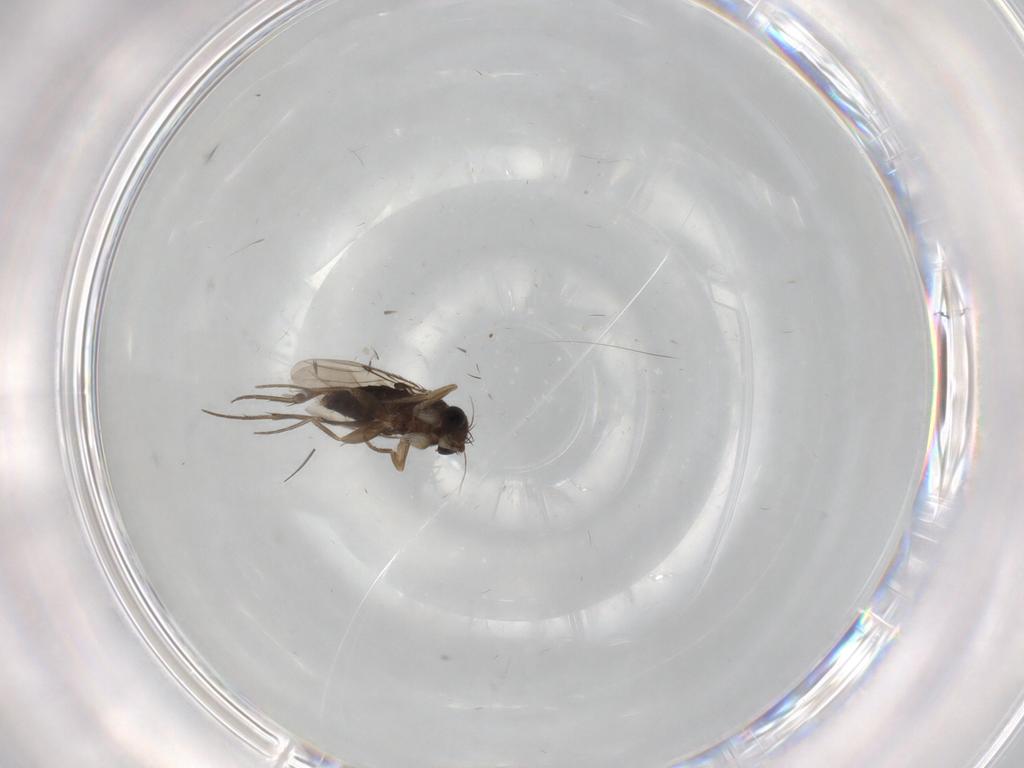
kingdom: Animalia
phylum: Arthropoda
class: Insecta
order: Diptera
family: Phoridae
